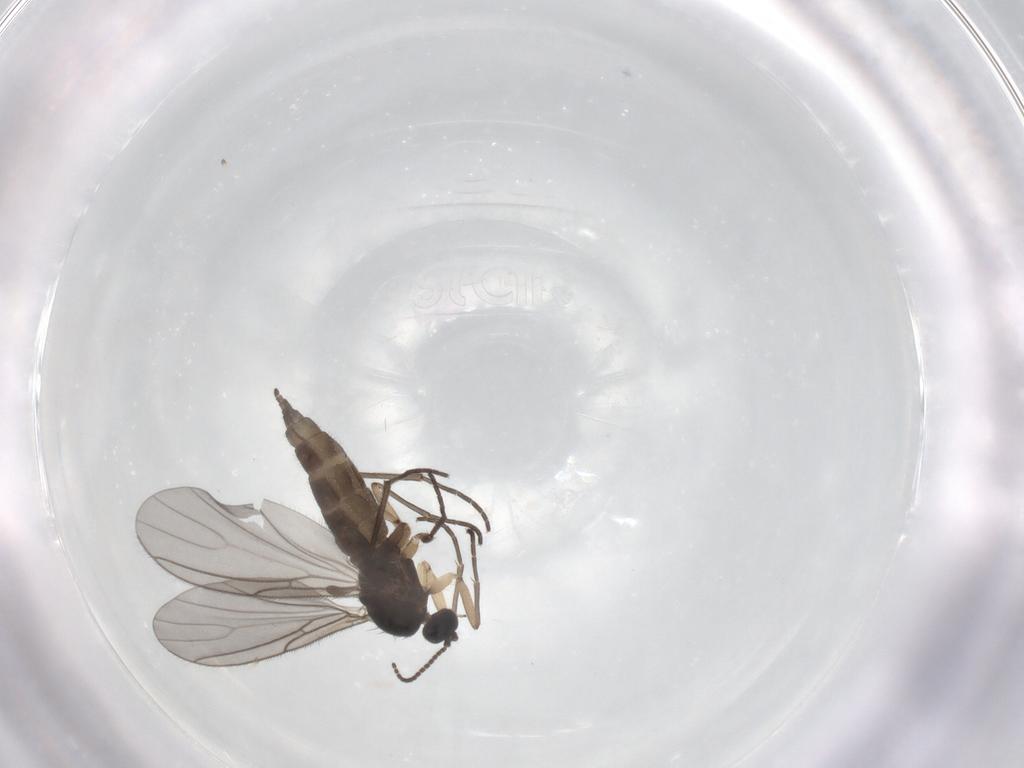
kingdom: Animalia
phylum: Arthropoda
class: Insecta
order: Diptera
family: Sciaridae
